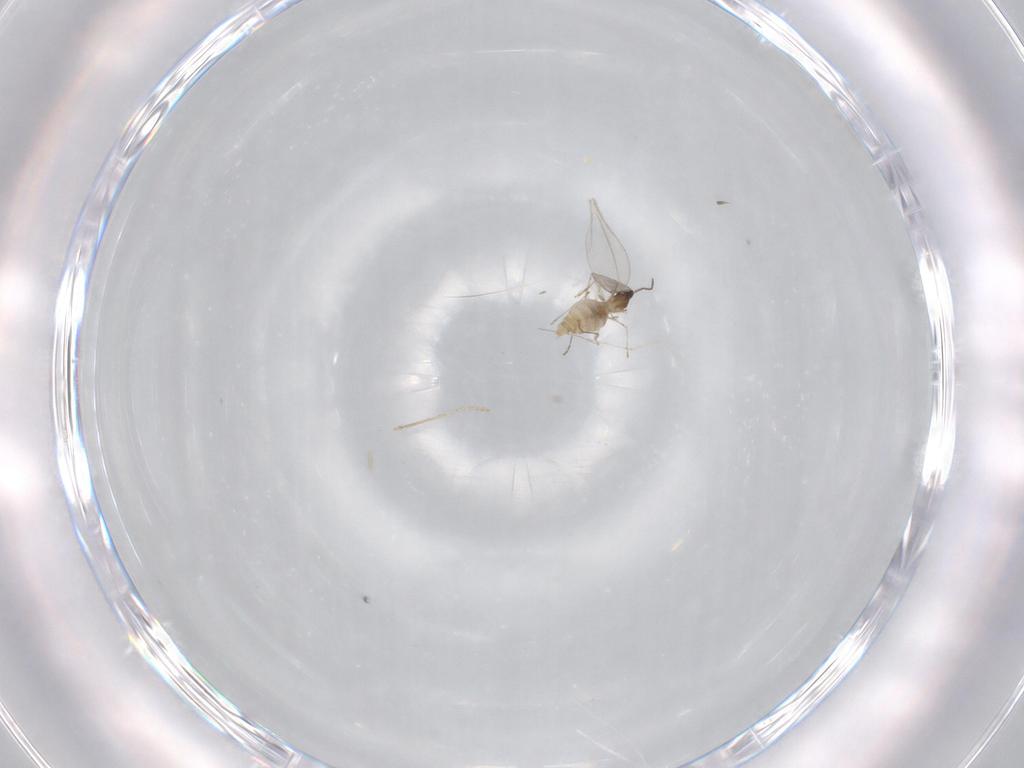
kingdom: Animalia
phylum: Arthropoda
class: Insecta
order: Diptera
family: Cecidomyiidae
